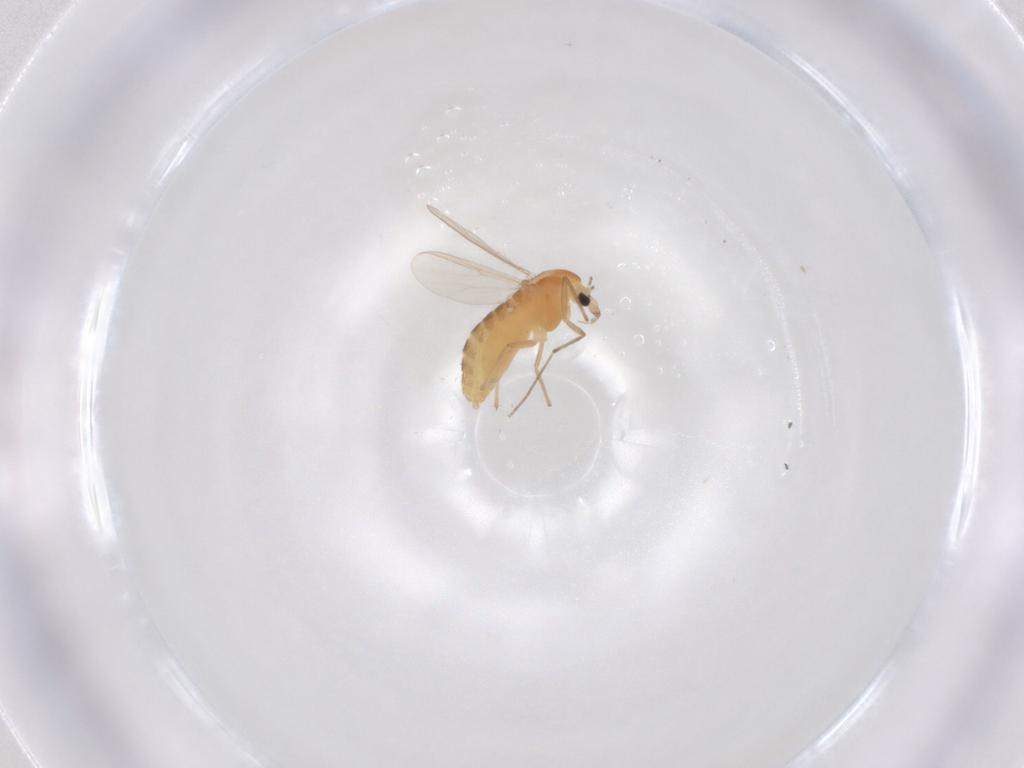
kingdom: Animalia
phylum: Arthropoda
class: Insecta
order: Diptera
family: Chironomidae
